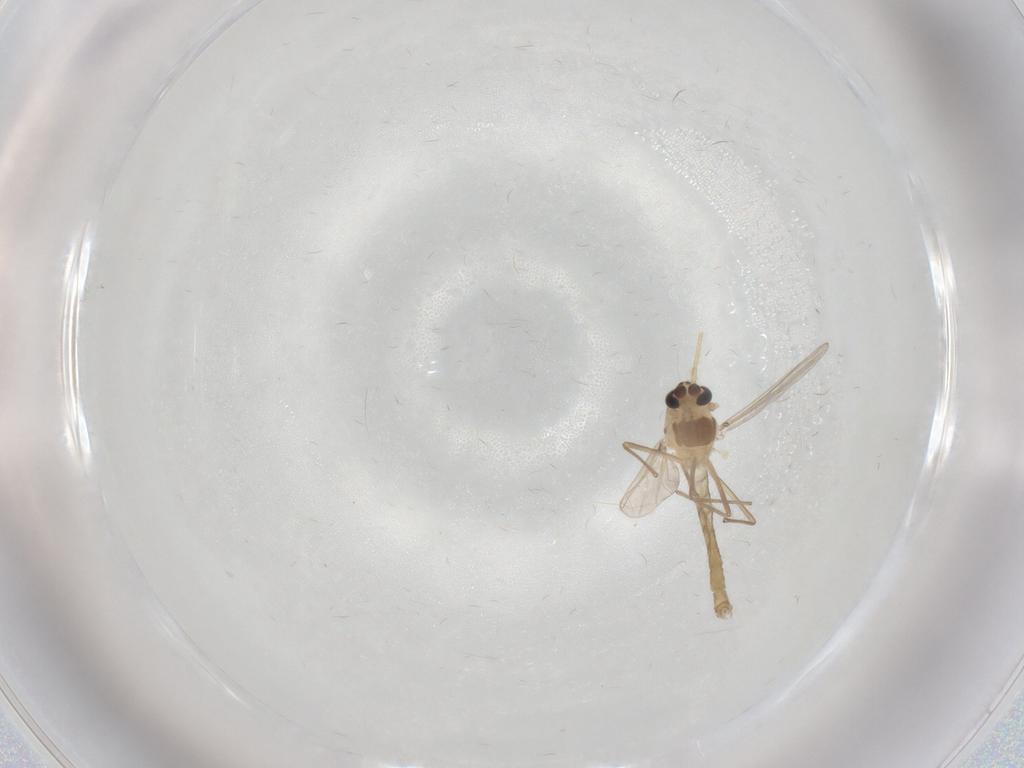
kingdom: Animalia
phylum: Arthropoda
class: Insecta
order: Diptera
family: Chironomidae
